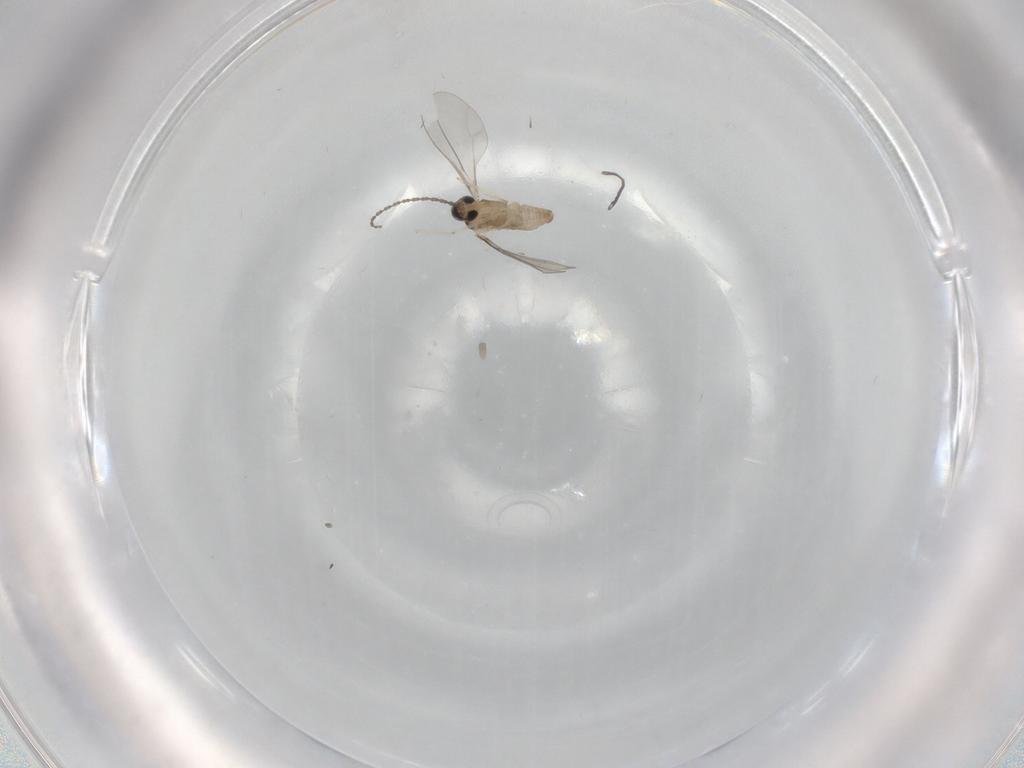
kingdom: Animalia
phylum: Arthropoda
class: Insecta
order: Diptera
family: Cecidomyiidae
